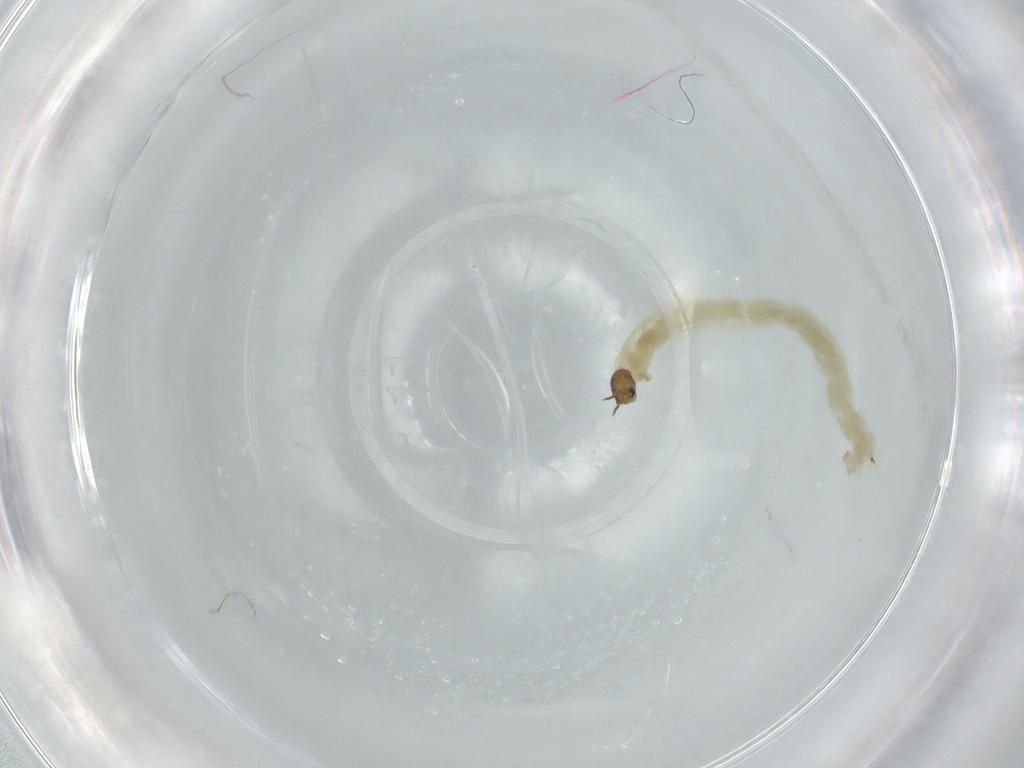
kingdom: Animalia
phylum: Arthropoda
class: Insecta
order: Diptera
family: Chironomidae
